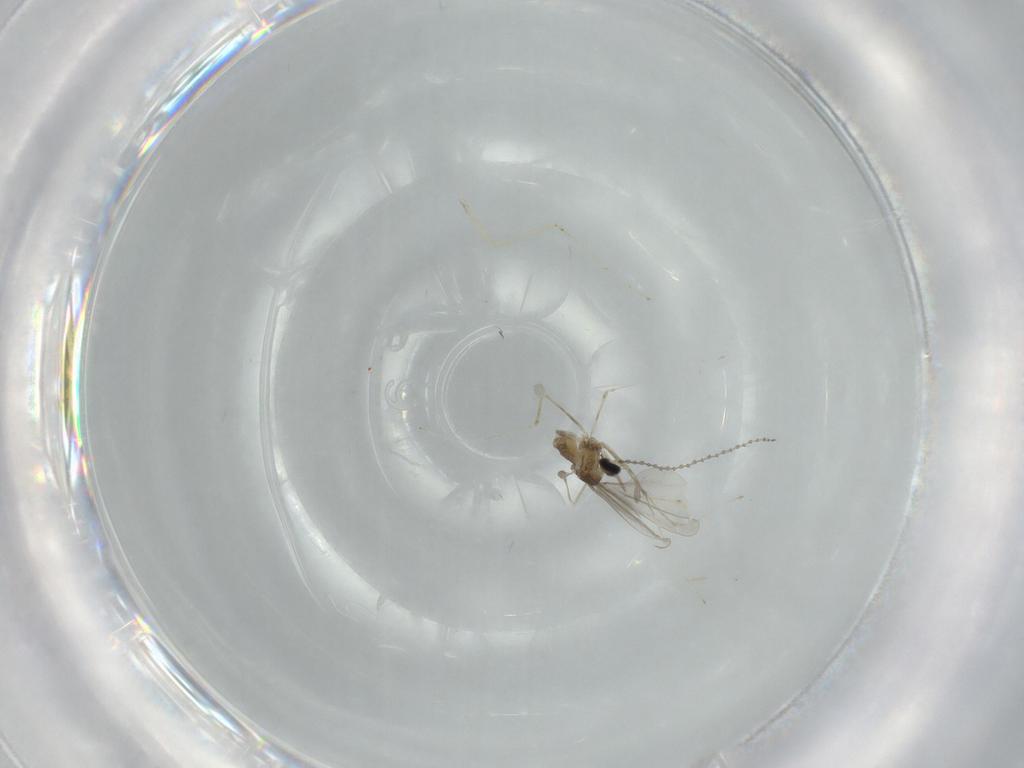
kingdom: Animalia
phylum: Arthropoda
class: Insecta
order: Diptera
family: Cecidomyiidae
